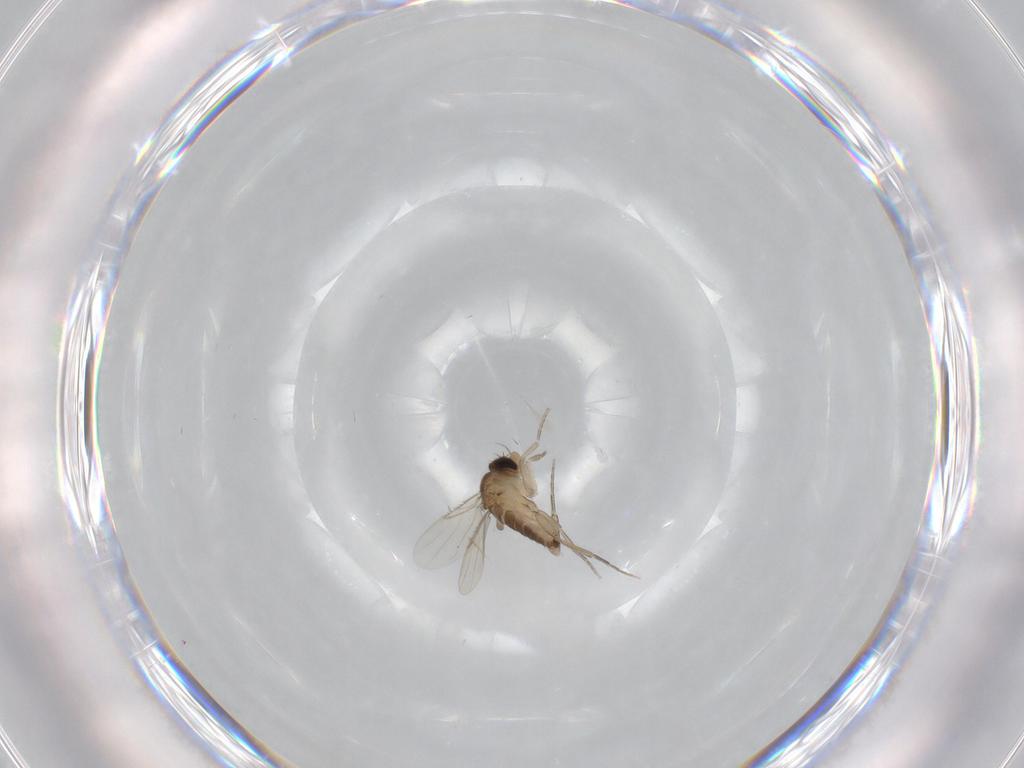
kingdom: Animalia
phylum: Arthropoda
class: Insecta
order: Diptera
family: Phoridae
